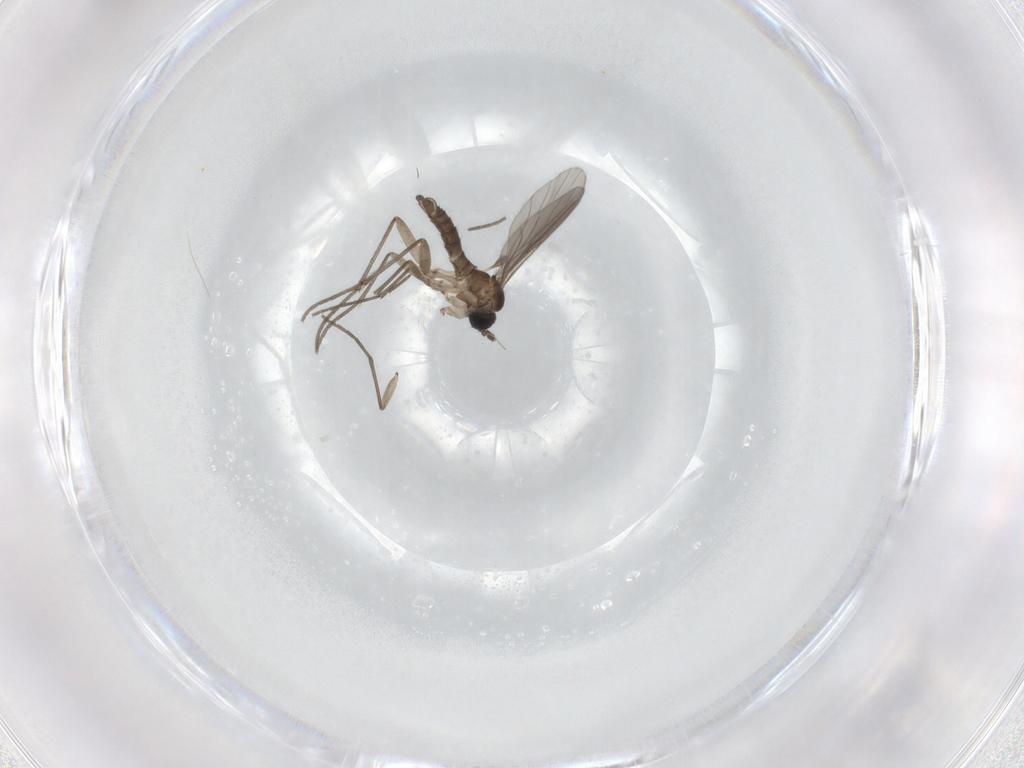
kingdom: Animalia
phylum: Arthropoda
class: Insecta
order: Diptera
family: Sciaridae
